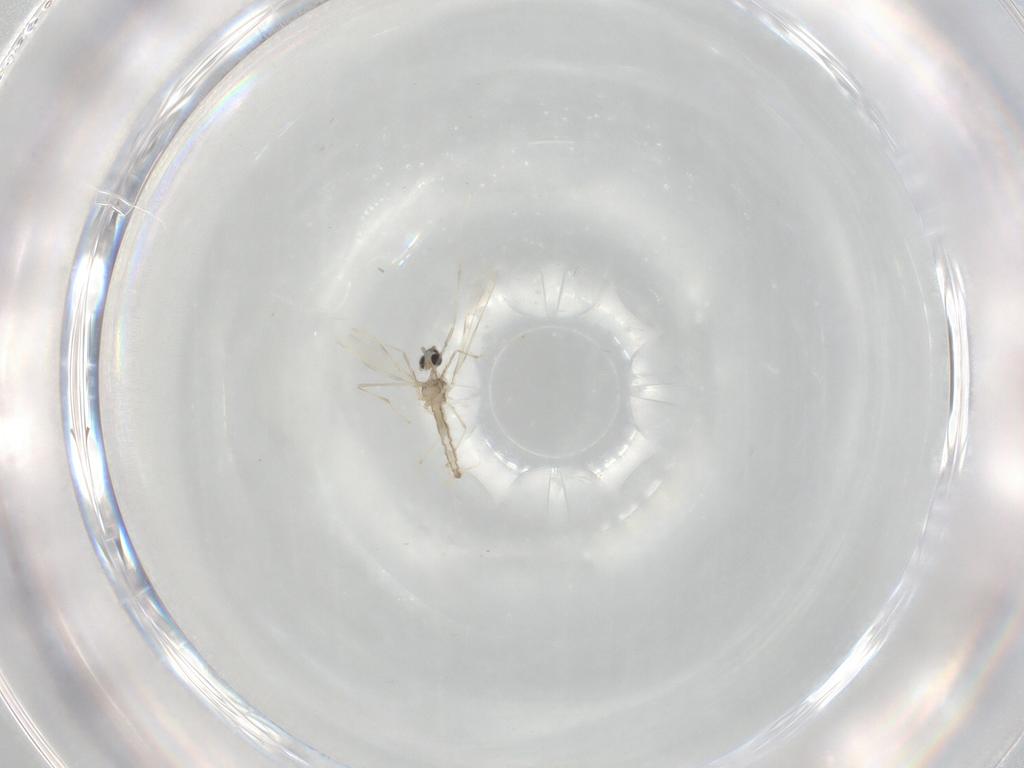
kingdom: Animalia
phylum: Arthropoda
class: Insecta
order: Diptera
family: Cecidomyiidae
